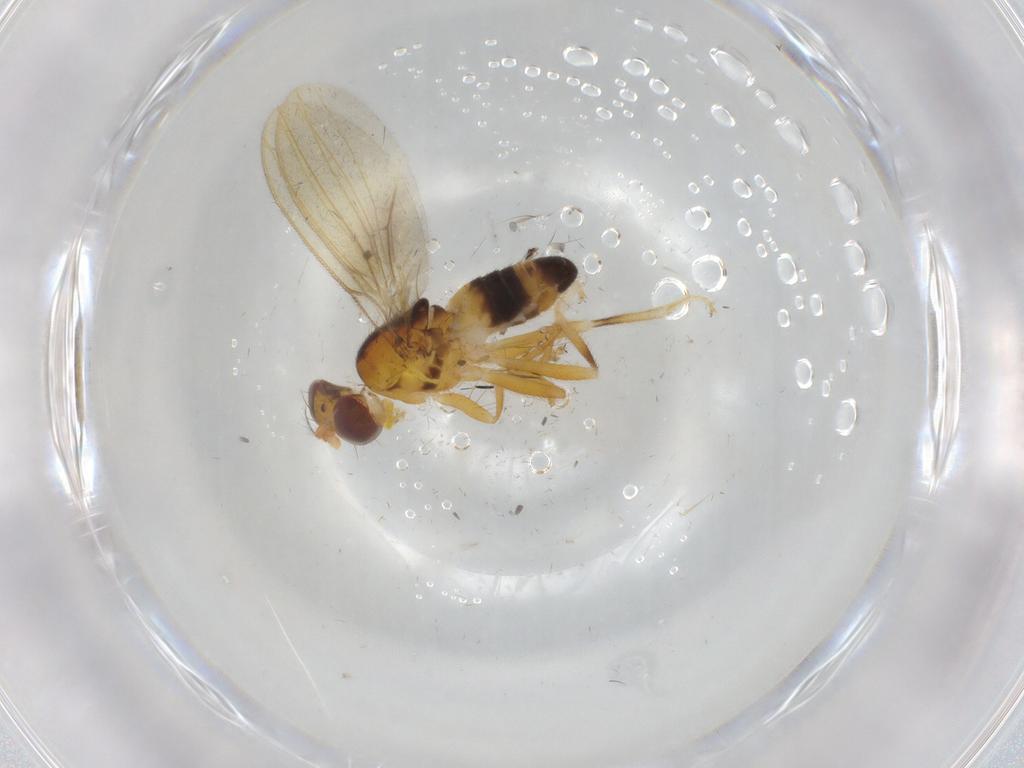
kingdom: Animalia
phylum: Arthropoda
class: Insecta
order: Diptera
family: Periscelididae
